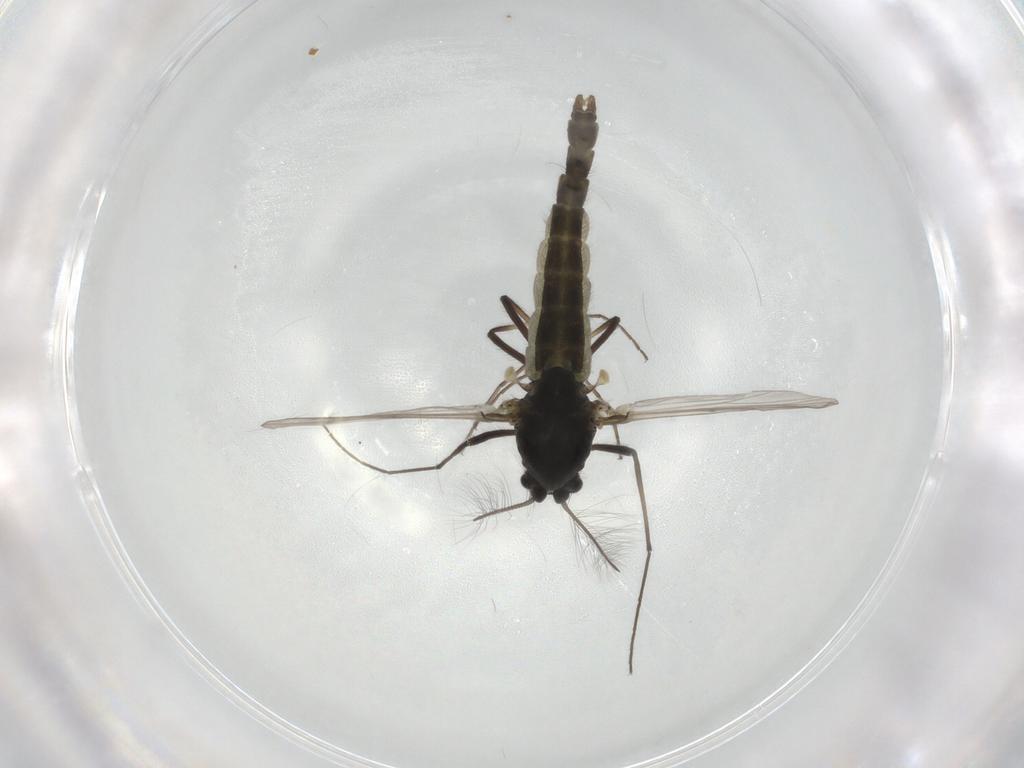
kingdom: Animalia
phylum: Arthropoda
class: Insecta
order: Diptera
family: Chironomidae
